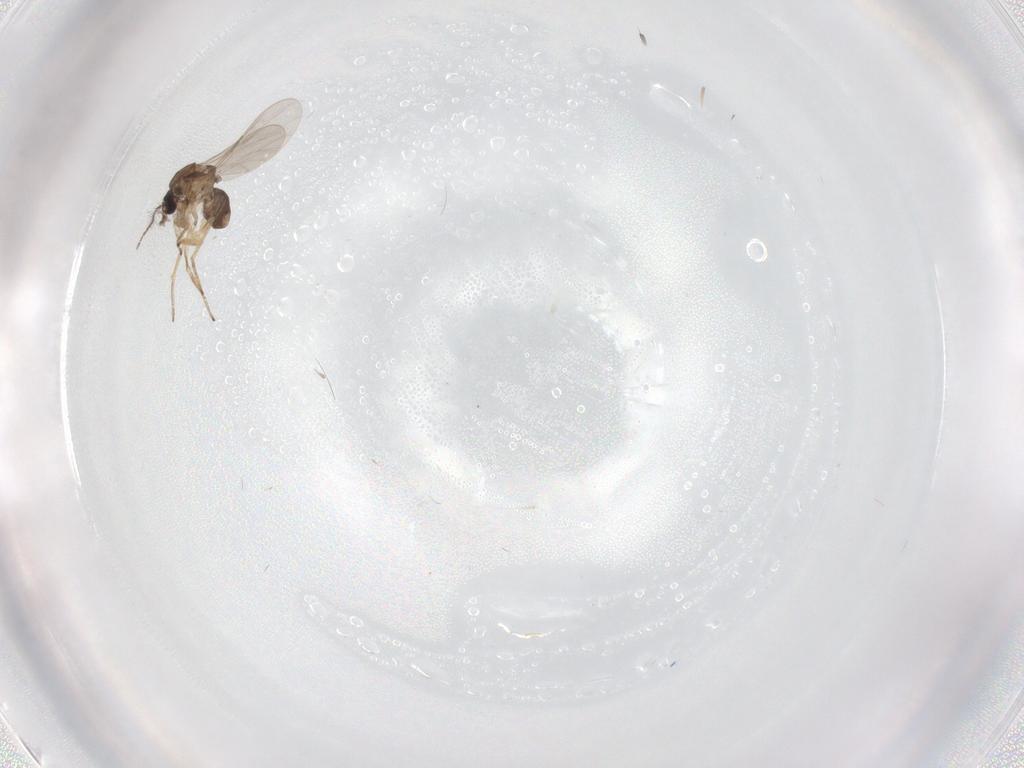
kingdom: Animalia
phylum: Arthropoda
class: Insecta
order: Diptera
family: Ceratopogonidae
